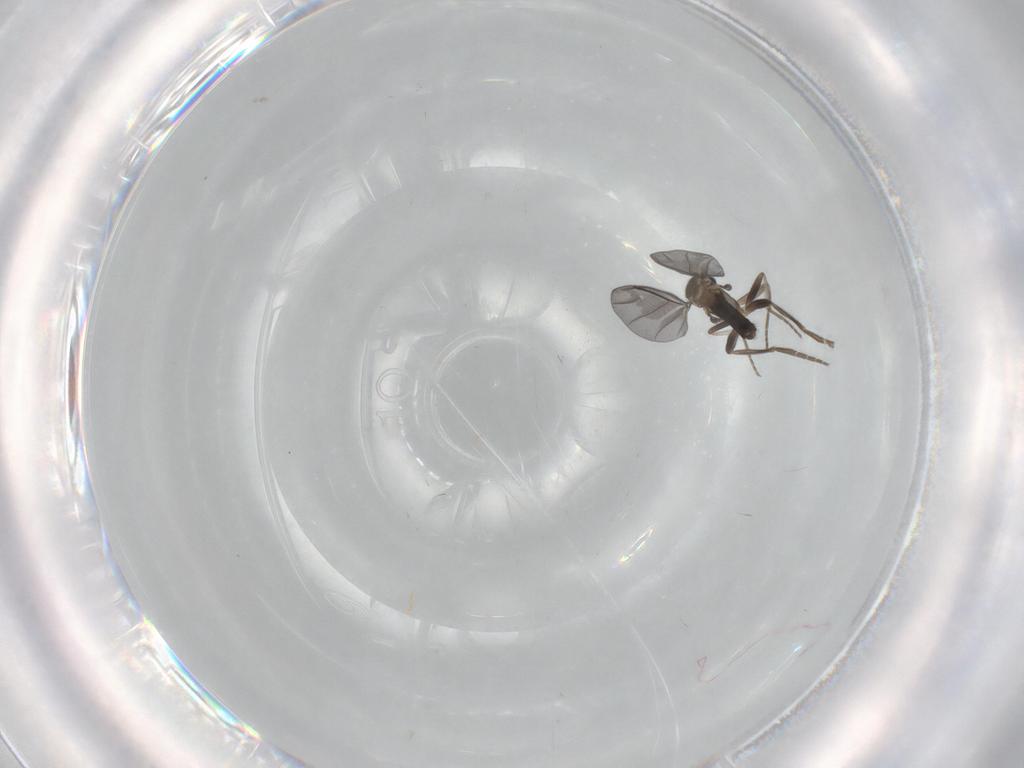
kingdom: Animalia
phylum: Arthropoda
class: Insecta
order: Diptera
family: Phoridae
